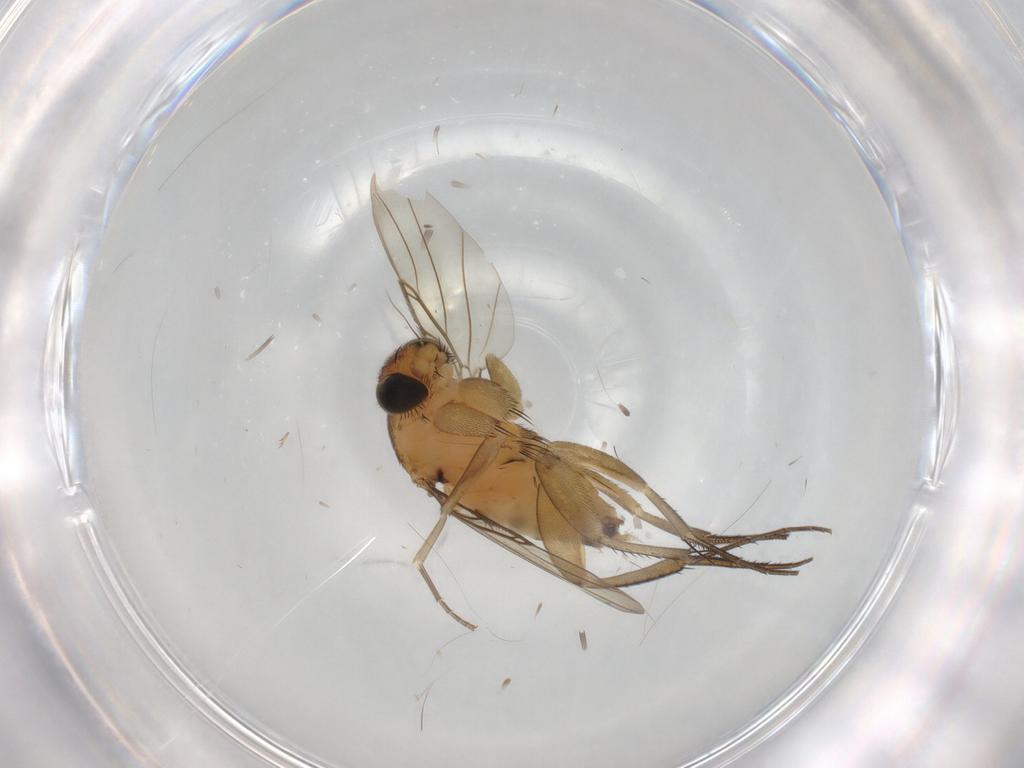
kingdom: Animalia
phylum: Arthropoda
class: Insecta
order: Diptera
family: Phoridae
